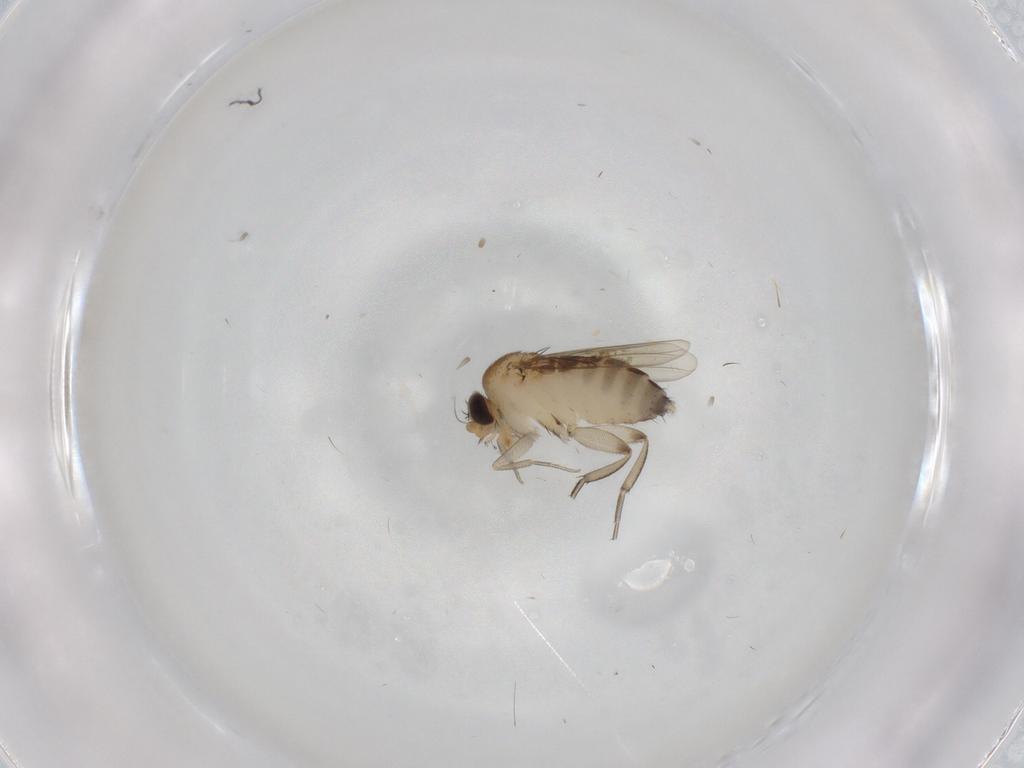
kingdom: Animalia
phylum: Arthropoda
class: Insecta
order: Diptera
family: Phoridae
